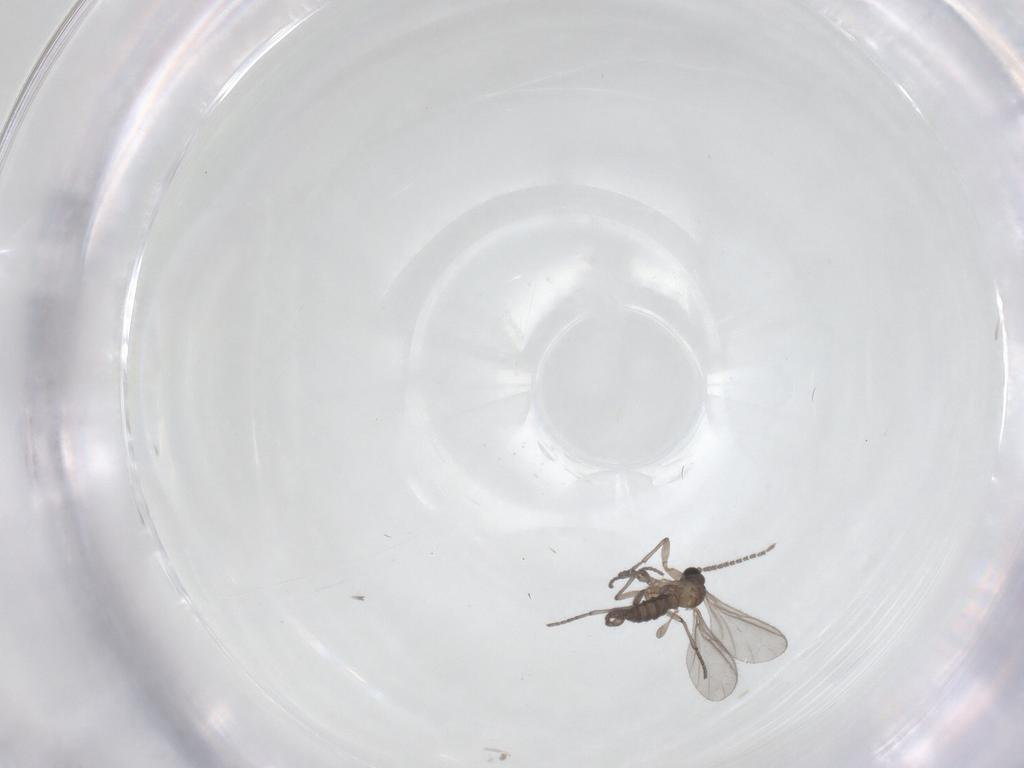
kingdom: Animalia
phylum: Arthropoda
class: Insecta
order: Diptera
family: Sciaridae
